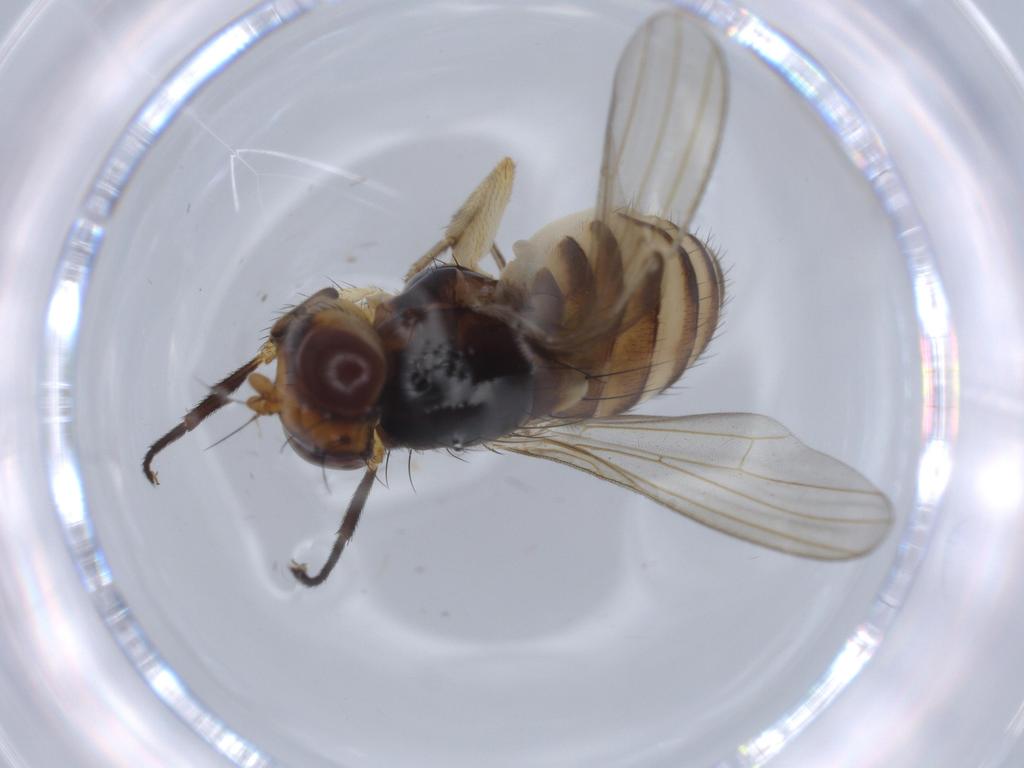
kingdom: Animalia
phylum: Arthropoda
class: Insecta
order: Diptera
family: Lauxaniidae
